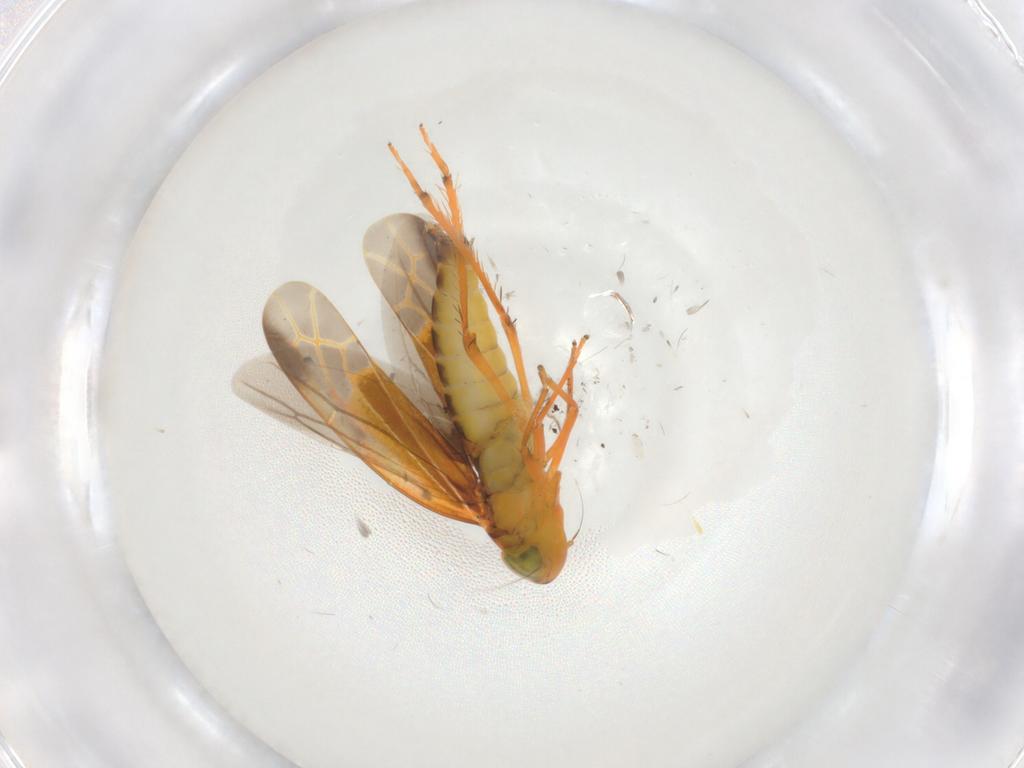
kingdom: Animalia
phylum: Arthropoda
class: Insecta
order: Hemiptera
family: Cicadellidae
